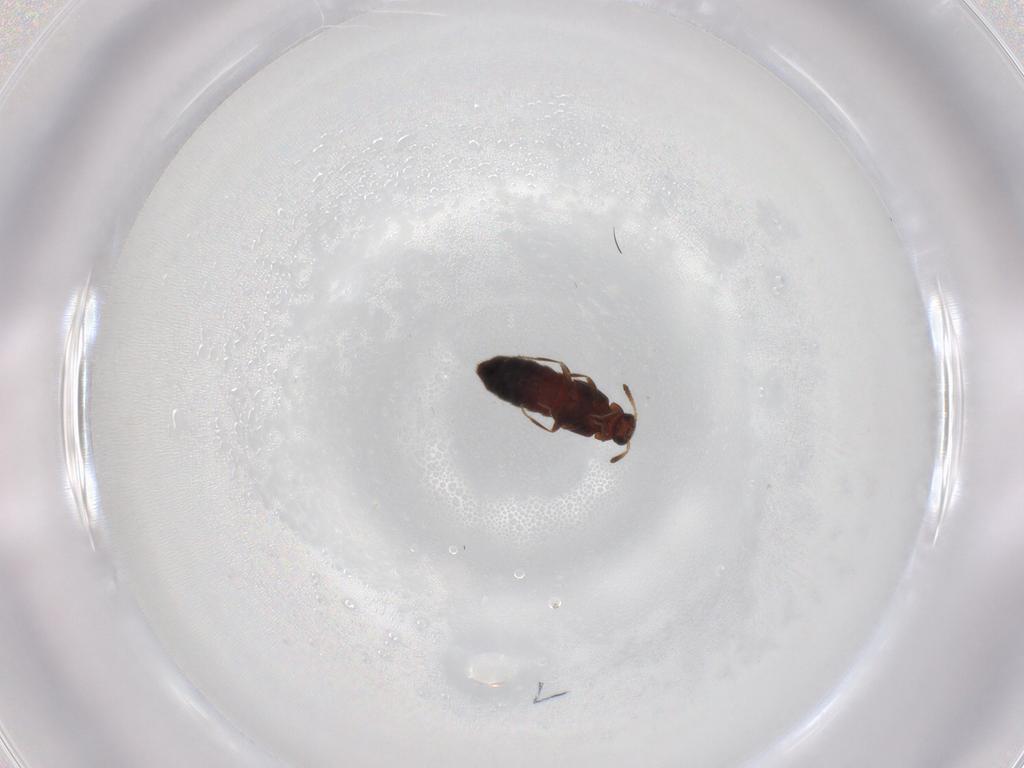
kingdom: Animalia
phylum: Arthropoda
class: Insecta
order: Coleoptera
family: Staphylinidae
